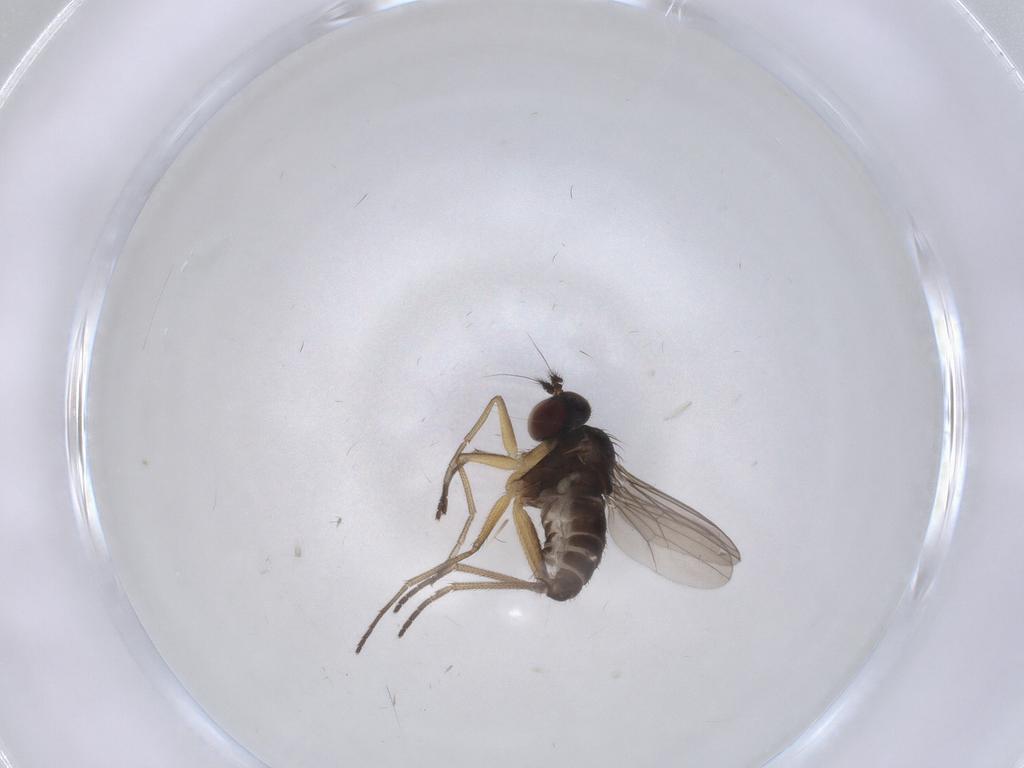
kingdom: Animalia
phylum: Arthropoda
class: Insecta
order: Diptera
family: Dolichopodidae
